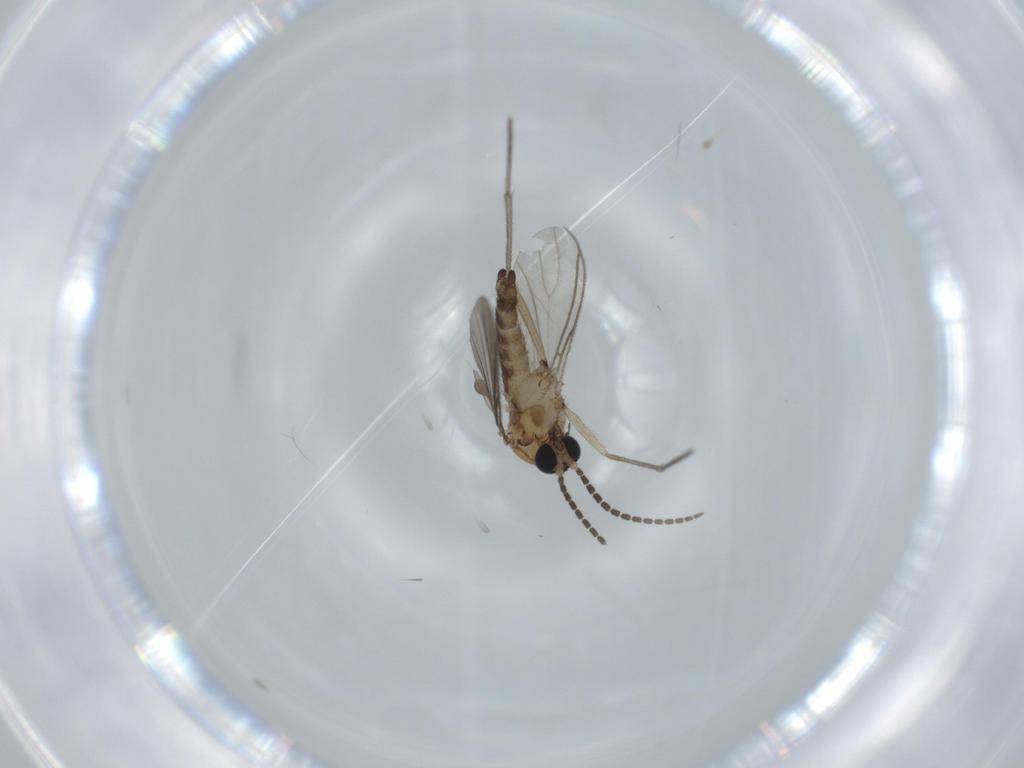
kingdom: Animalia
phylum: Arthropoda
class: Insecta
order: Diptera
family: Sciaridae
